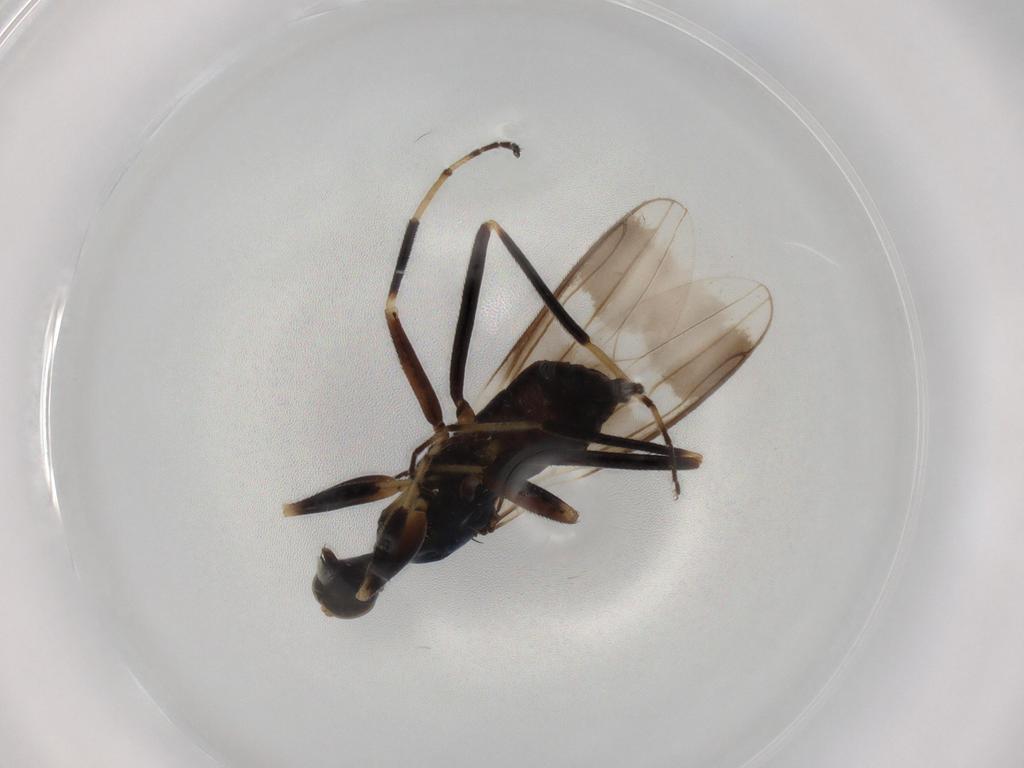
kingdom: Animalia
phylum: Arthropoda
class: Insecta
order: Diptera
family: Hybotidae
